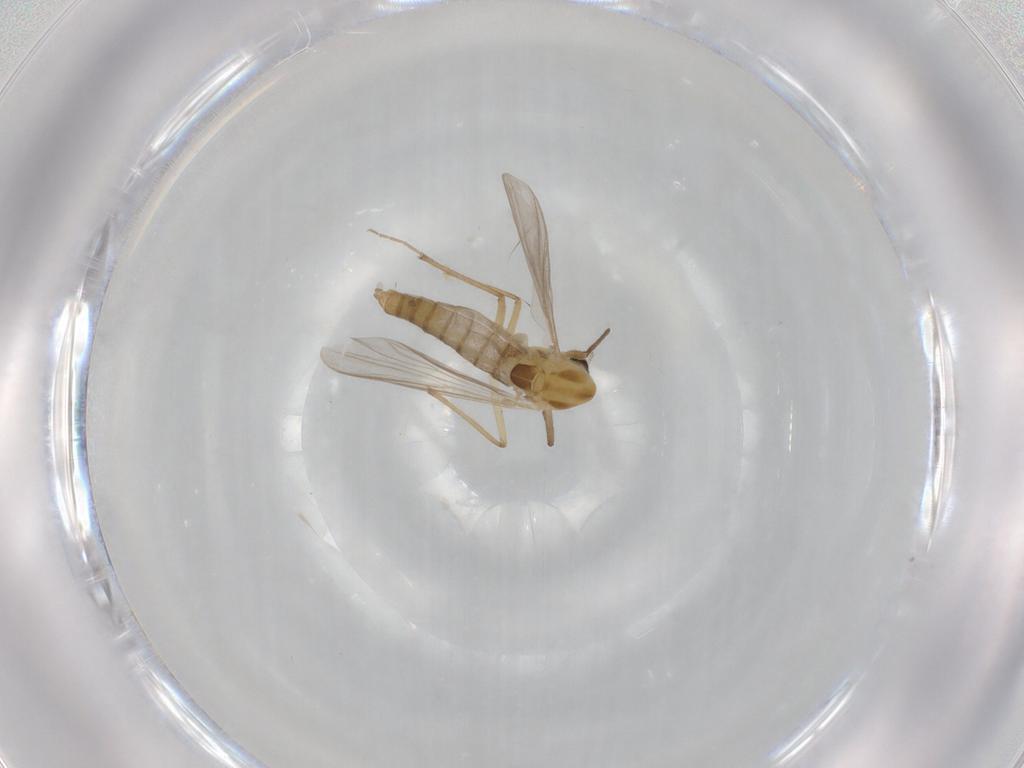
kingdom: Animalia
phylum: Arthropoda
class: Insecta
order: Diptera
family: Chironomidae
